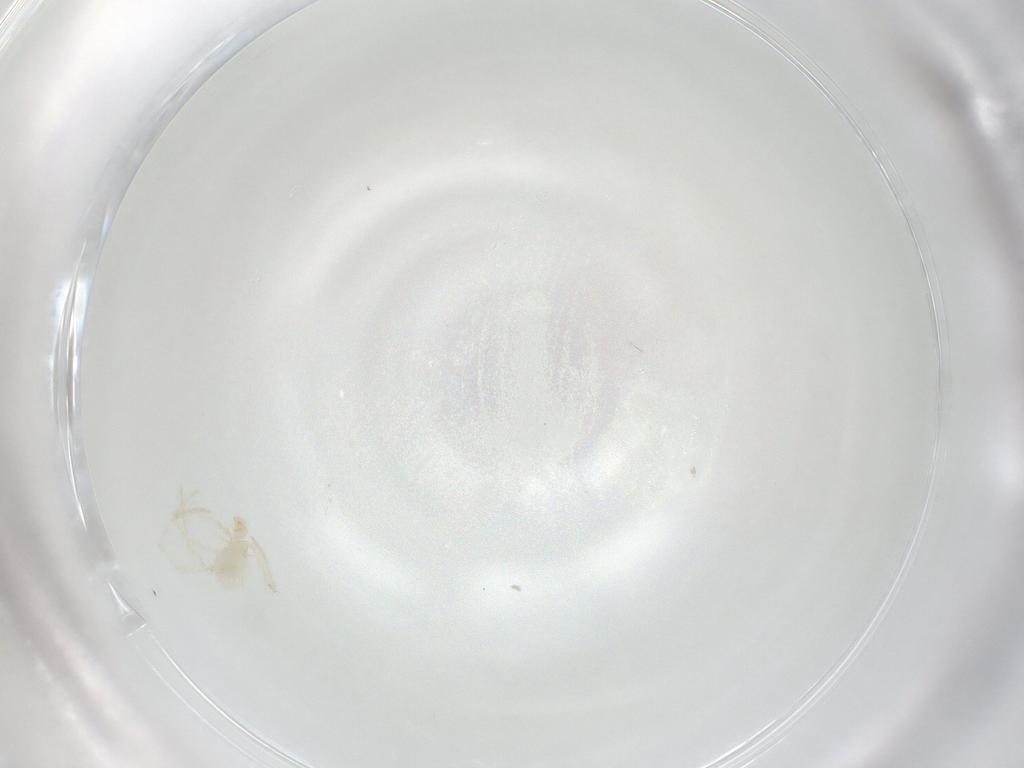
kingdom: Animalia
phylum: Arthropoda
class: Arachnida
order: Trombidiformes
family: Erythraeidae
